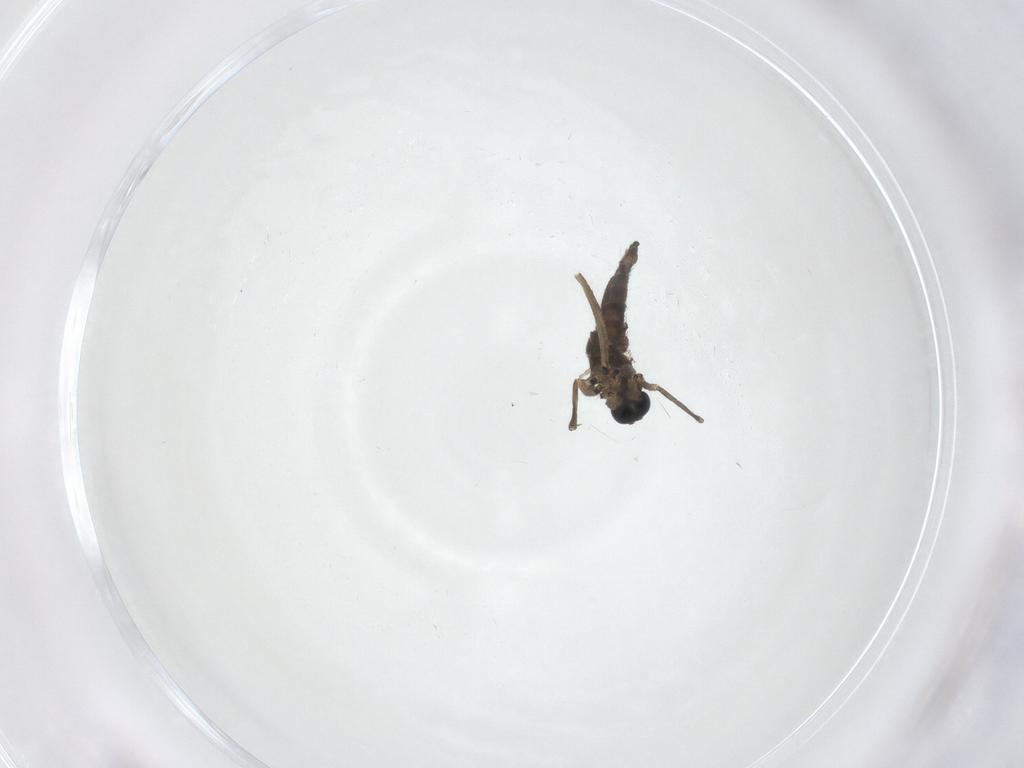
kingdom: Animalia
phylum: Arthropoda
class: Insecta
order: Diptera
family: Sciaridae
